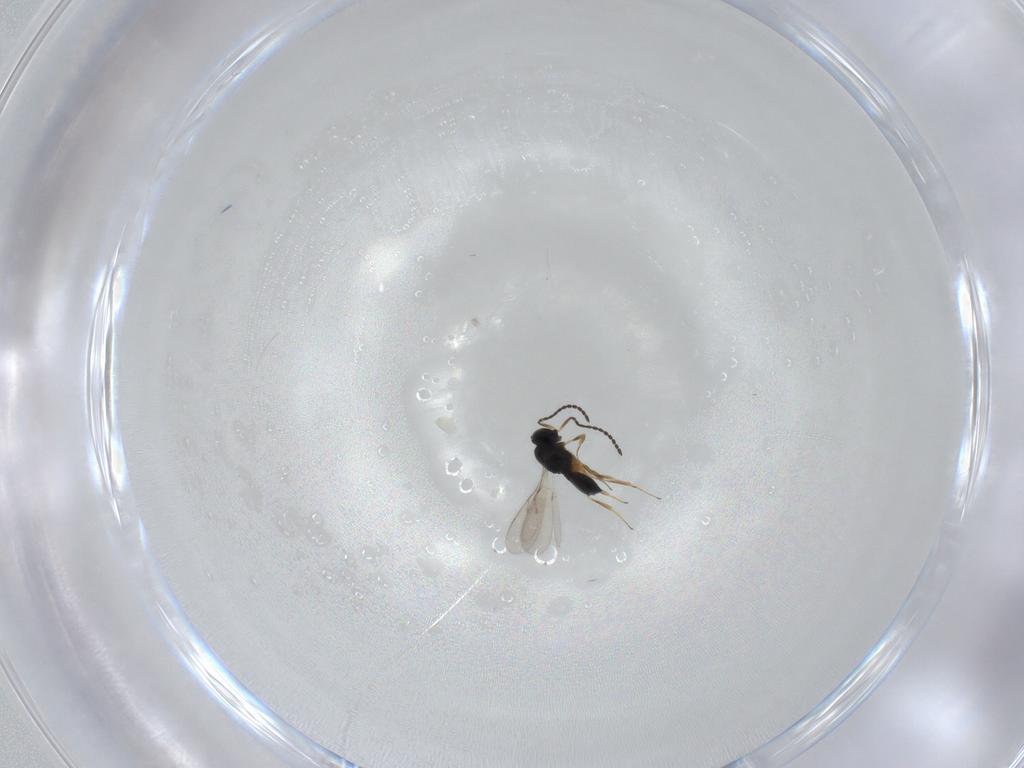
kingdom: Animalia
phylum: Arthropoda
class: Insecta
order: Hymenoptera
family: Scelionidae
